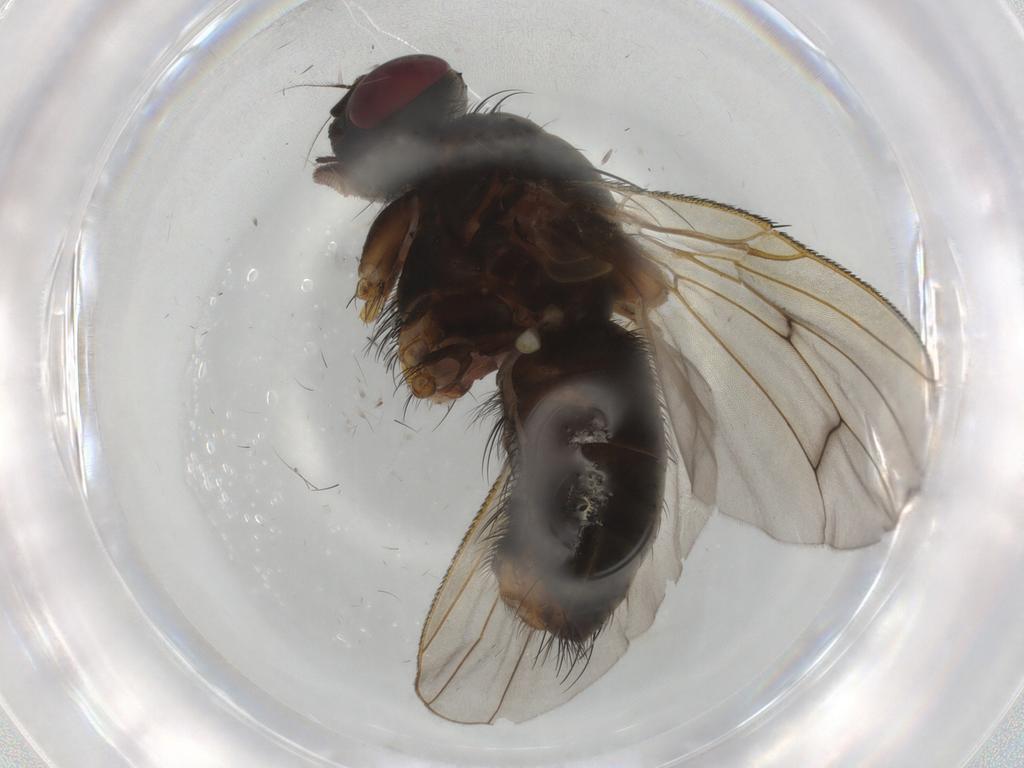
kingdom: Animalia
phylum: Arthropoda
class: Insecta
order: Diptera
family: Muscidae
